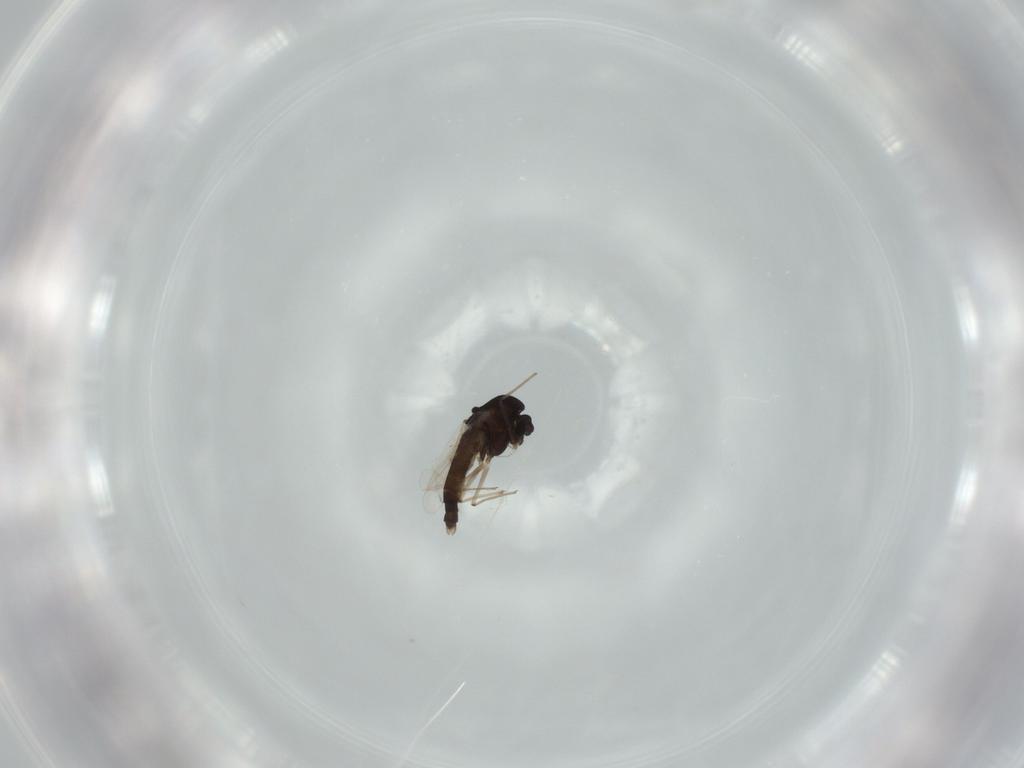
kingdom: Animalia
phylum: Arthropoda
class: Insecta
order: Diptera
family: Chironomidae
